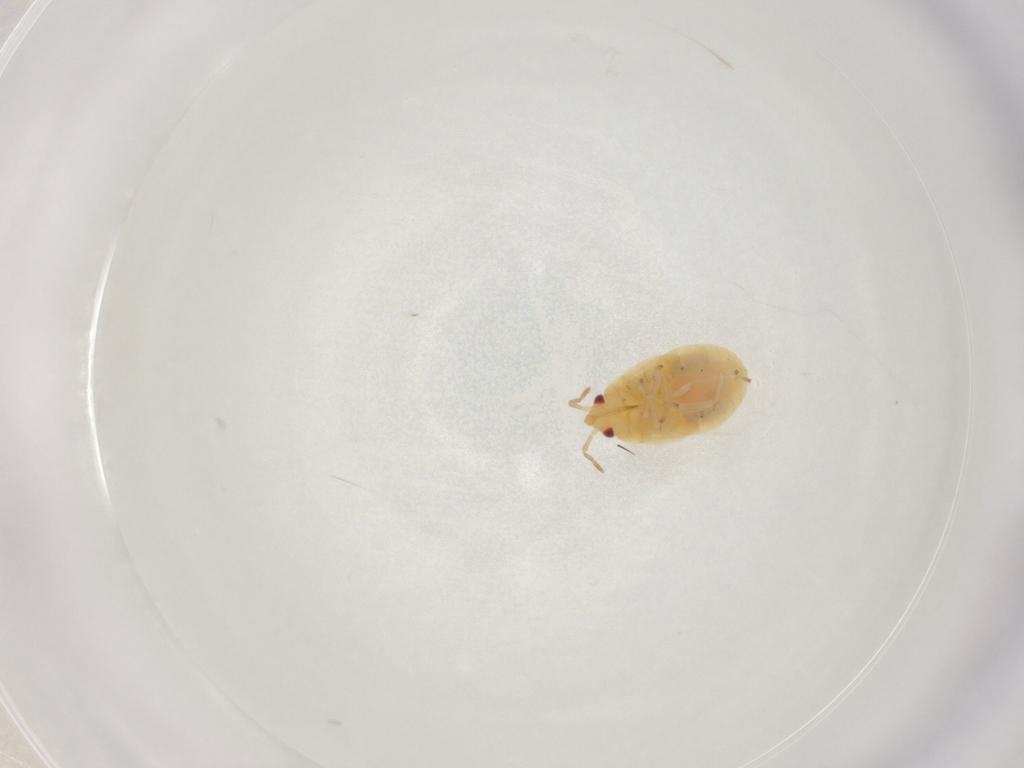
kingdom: Animalia
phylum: Arthropoda
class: Insecta
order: Hemiptera
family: Anthocoridae
